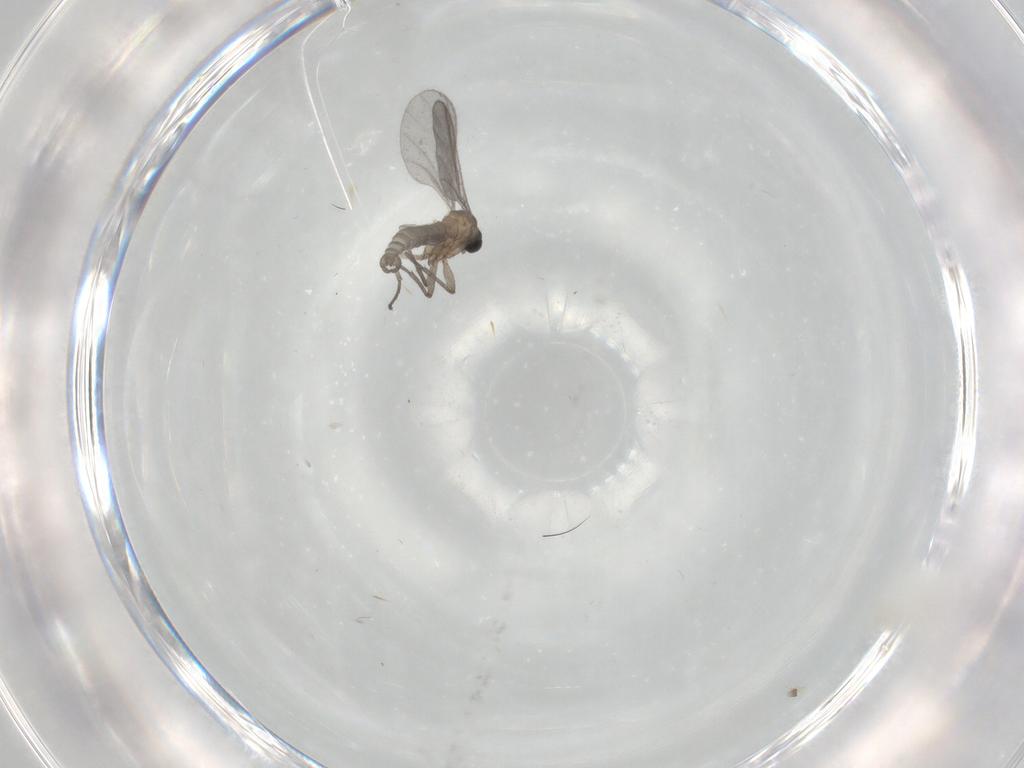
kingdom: Animalia
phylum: Arthropoda
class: Insecta
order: Diptera
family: Sciaridae
